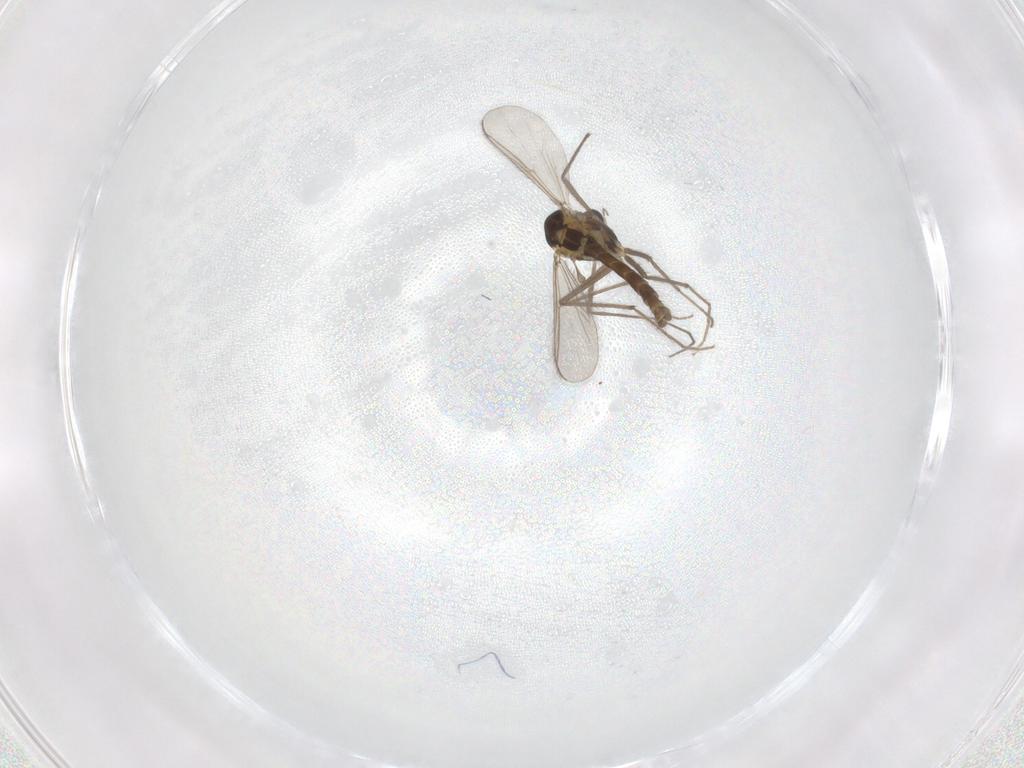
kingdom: Animalia
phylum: Arthropoda
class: Insecta
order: Diptera
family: Chironomidae
